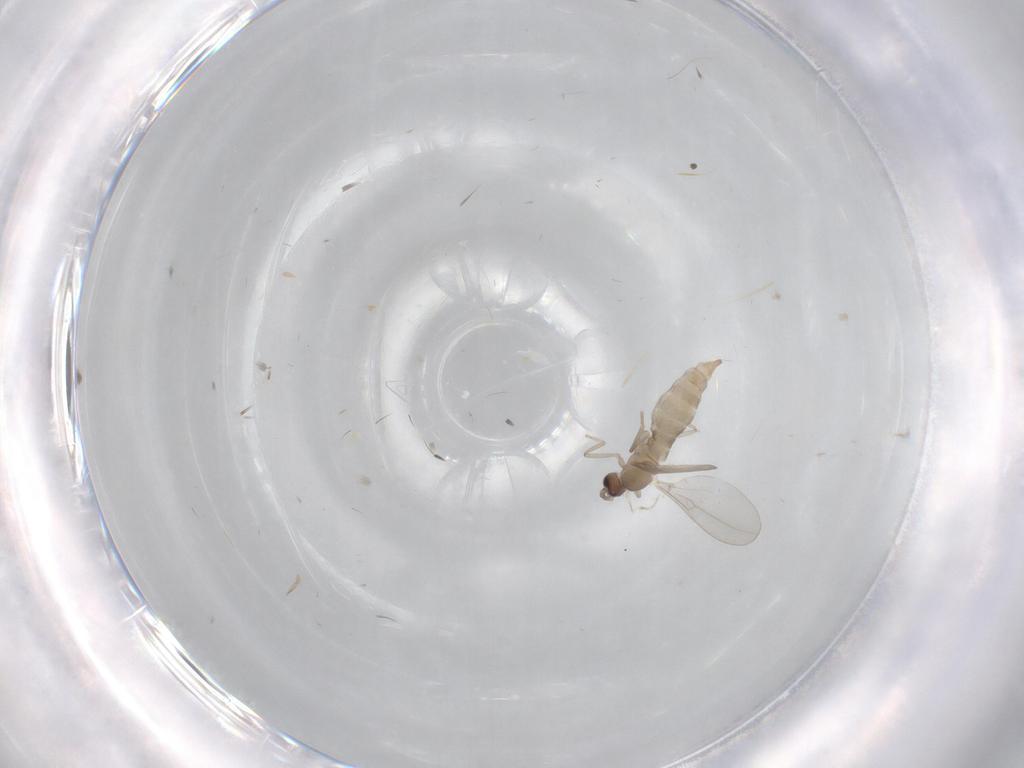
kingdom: Animalia
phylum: Arthropoda
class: Insecta
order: Diptera
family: Cecidomyiidae
